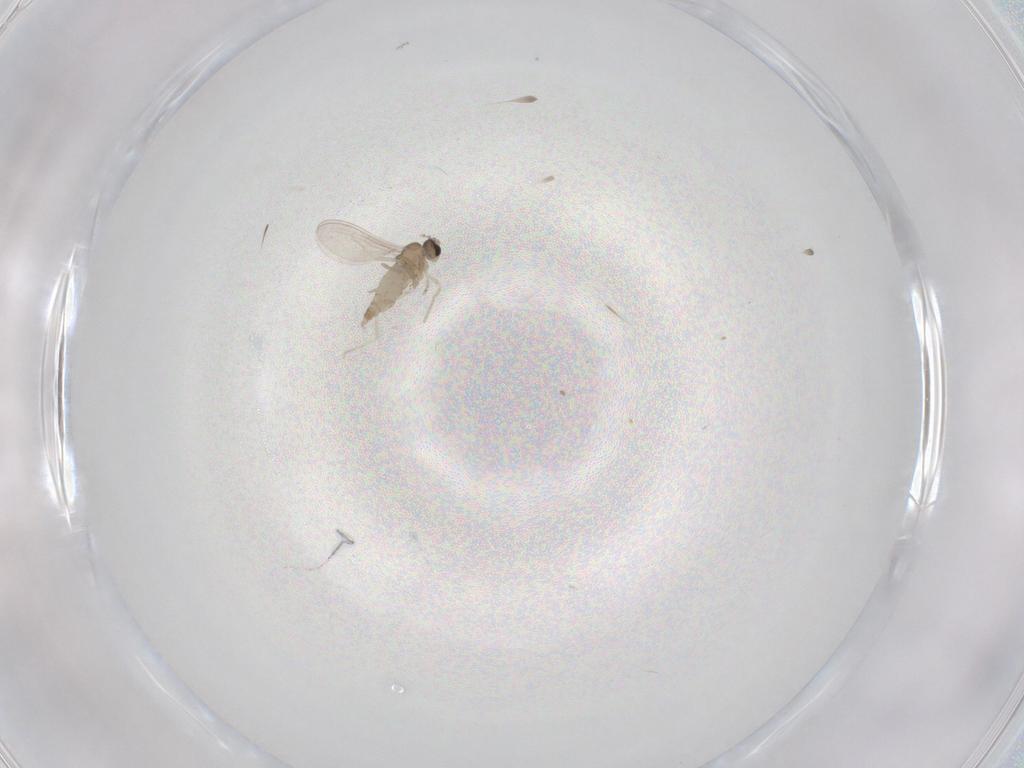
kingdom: Animalia
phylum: Arthropoda
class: Insecta
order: Diptera
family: Cecidomyiidae
